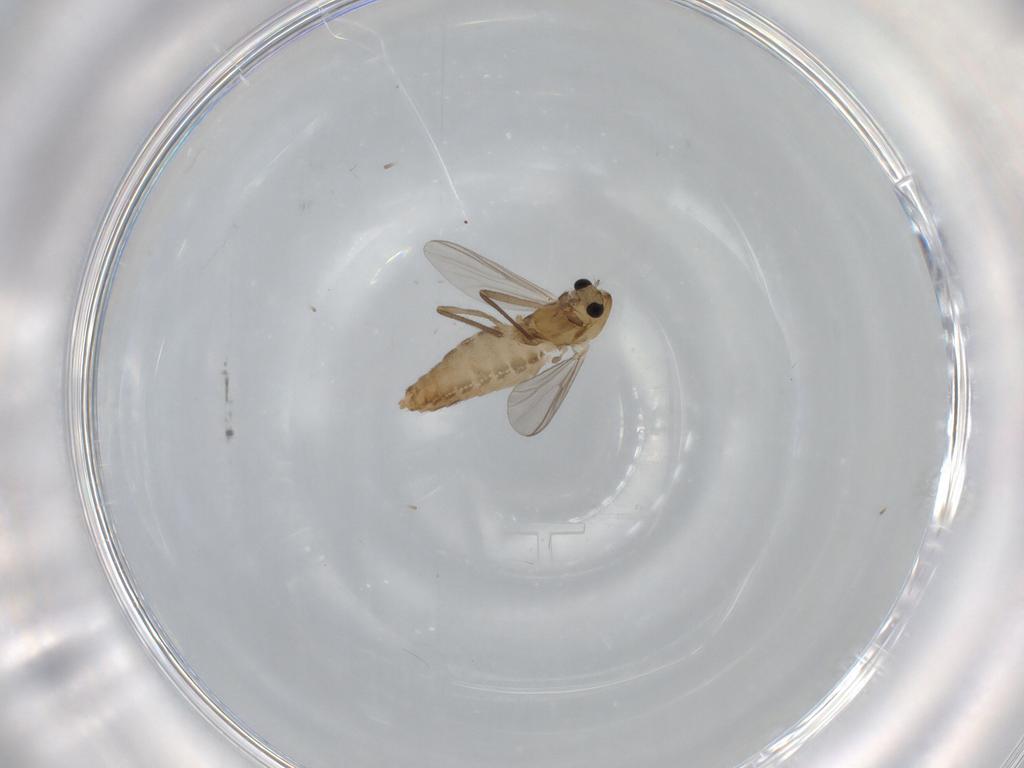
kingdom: Animalia
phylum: Arthropoda
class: Insecta
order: Diptera
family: Chironomidae
